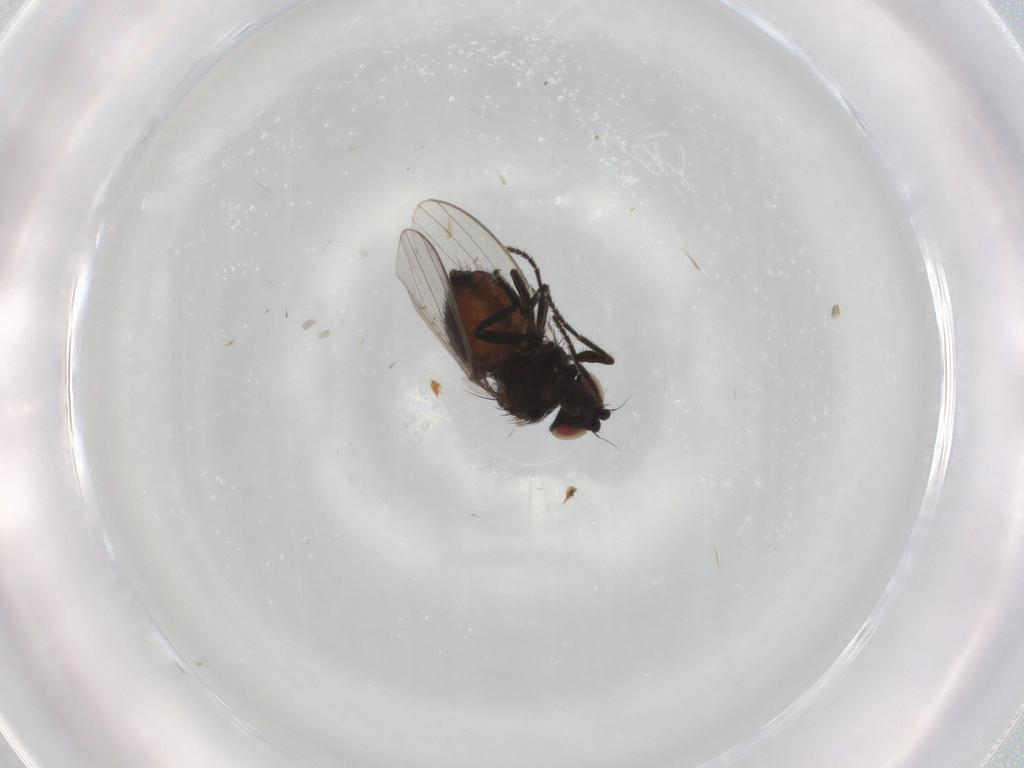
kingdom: Animalia
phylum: Arthropoda
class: Insecta
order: Diptera
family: Milichiidae
